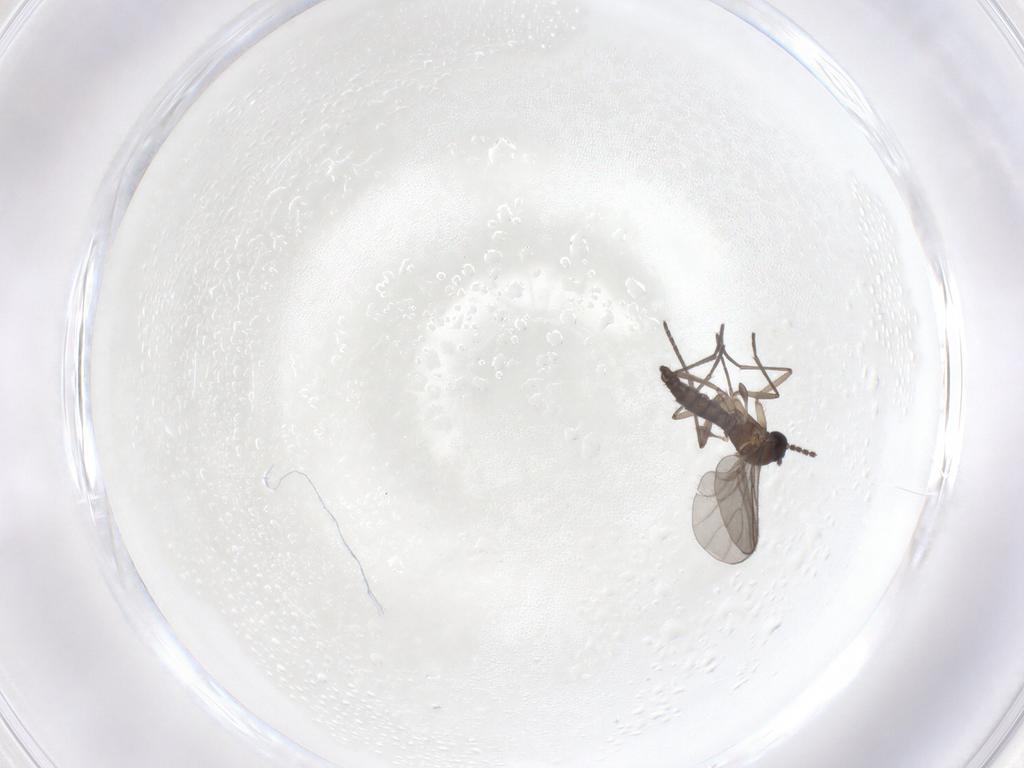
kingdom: Animalia
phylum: Arthropoda
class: Insecta
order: Diptera
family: Sciaridae
